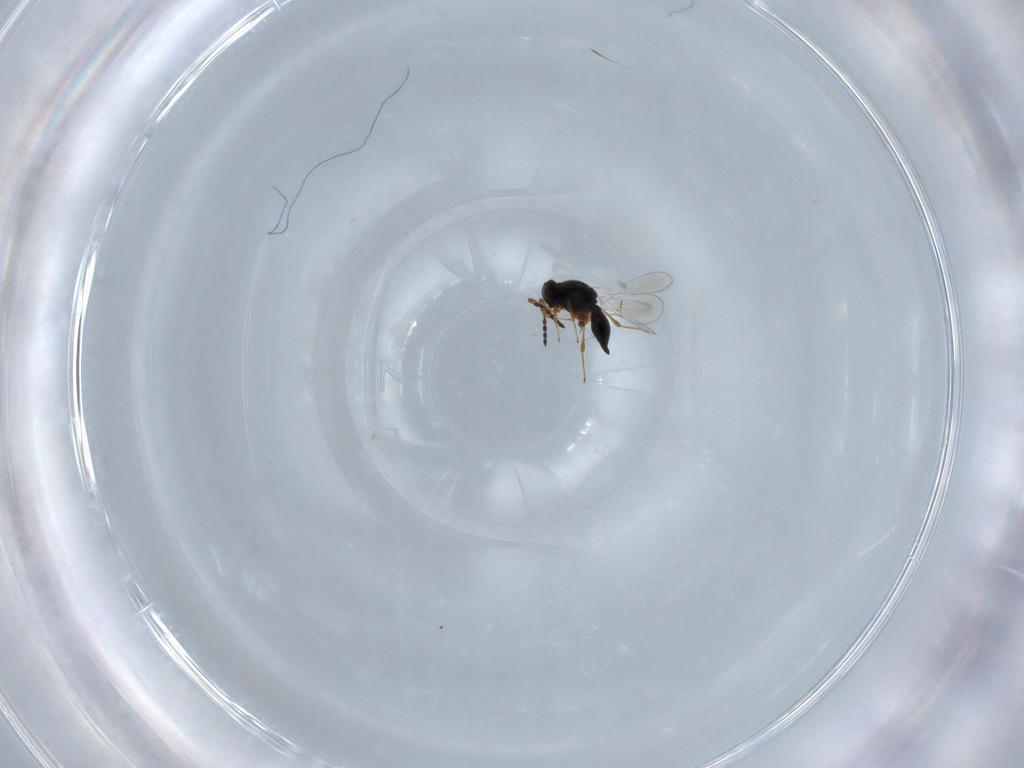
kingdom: Animalia
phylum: Arthropoda
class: Insecta
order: Hymenoptera
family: Platygastridae
